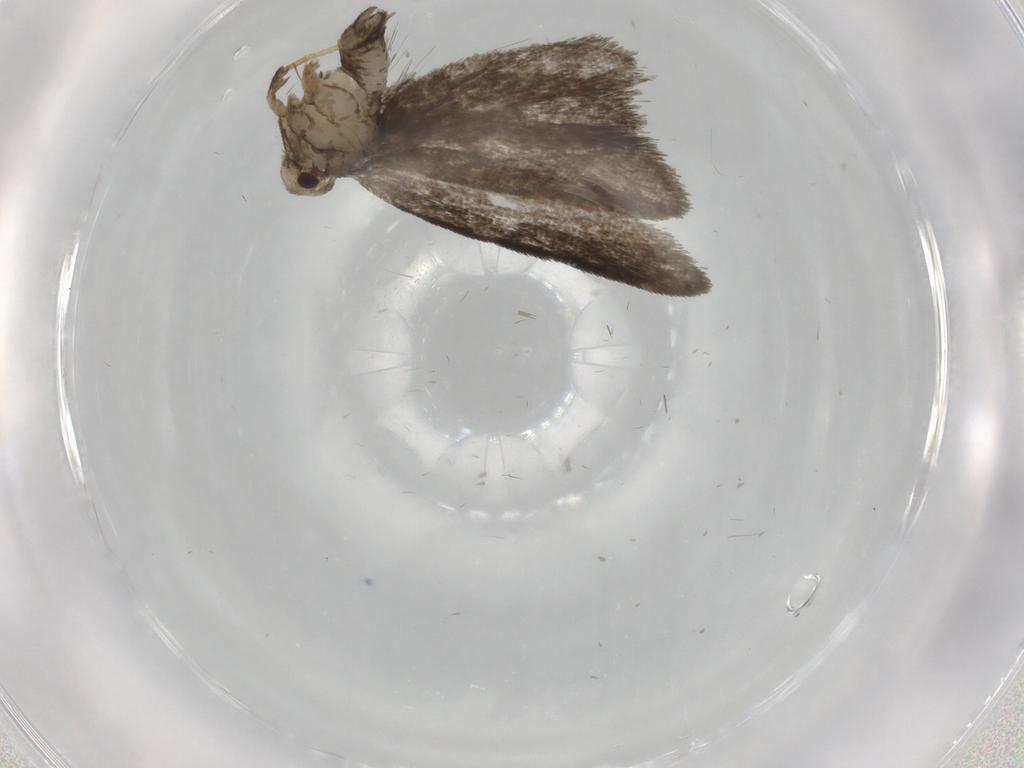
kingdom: Animalia
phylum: Arthropoda
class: Insecta
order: Lepidoptera
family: Psychidae
